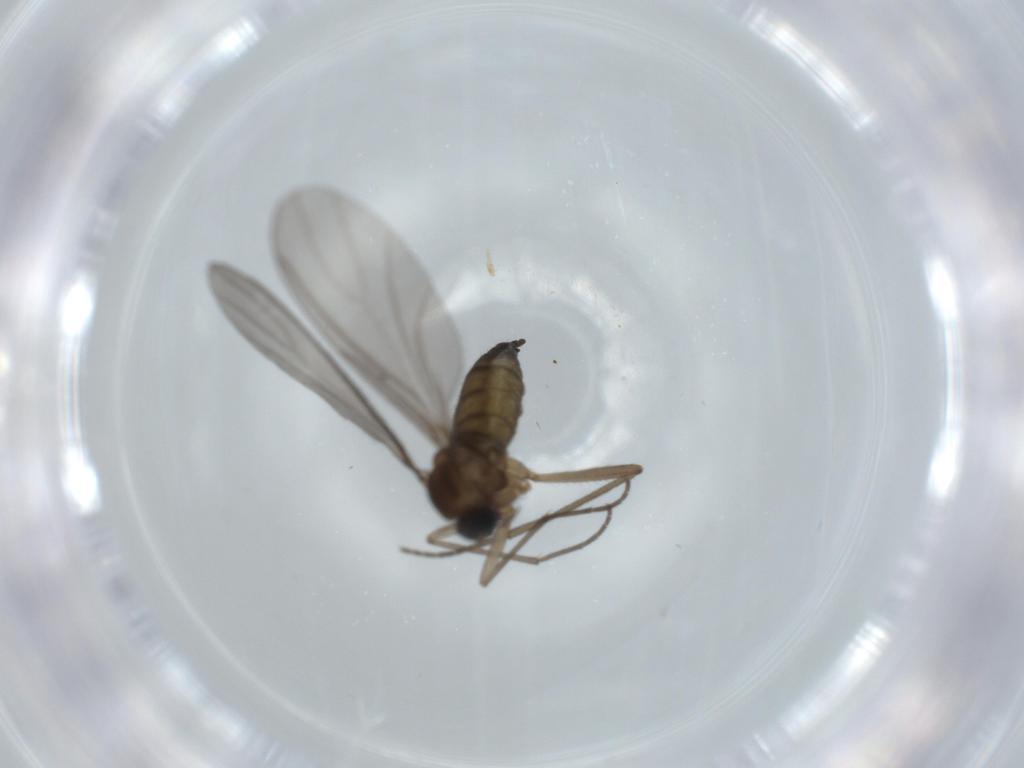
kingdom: Animalia
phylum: Arthropoda
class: Insecta
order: Diptera
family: Sciaridae
